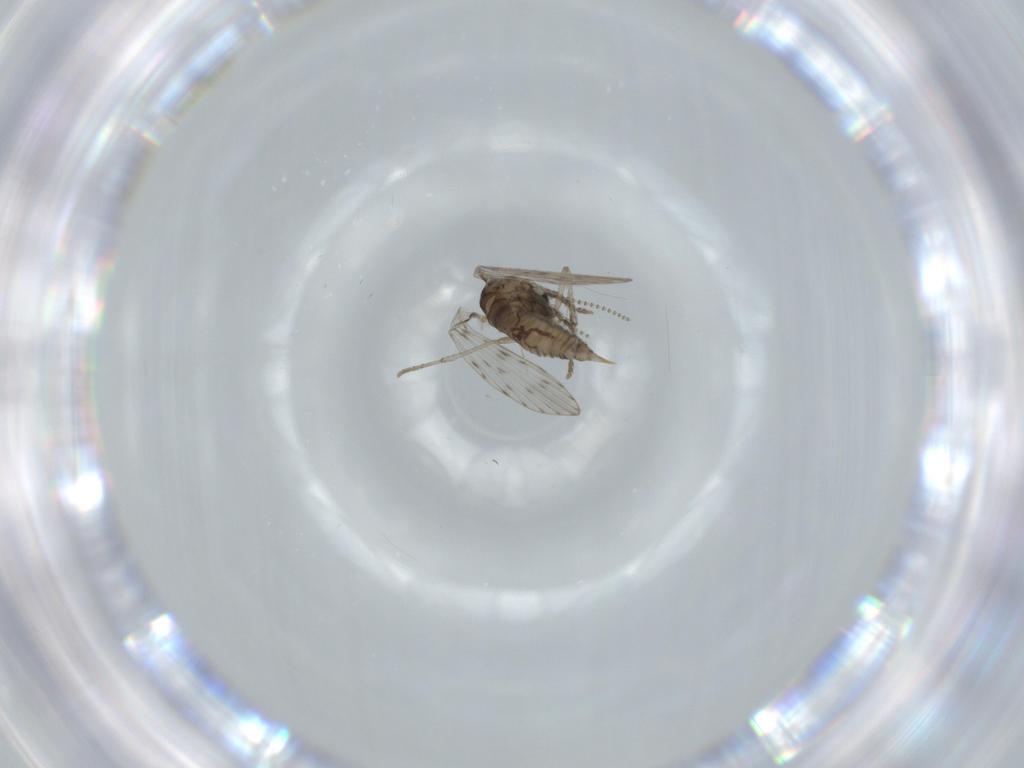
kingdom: Animalia
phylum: Arthropoda
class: Insecta
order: Diptera
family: Psychodidae
